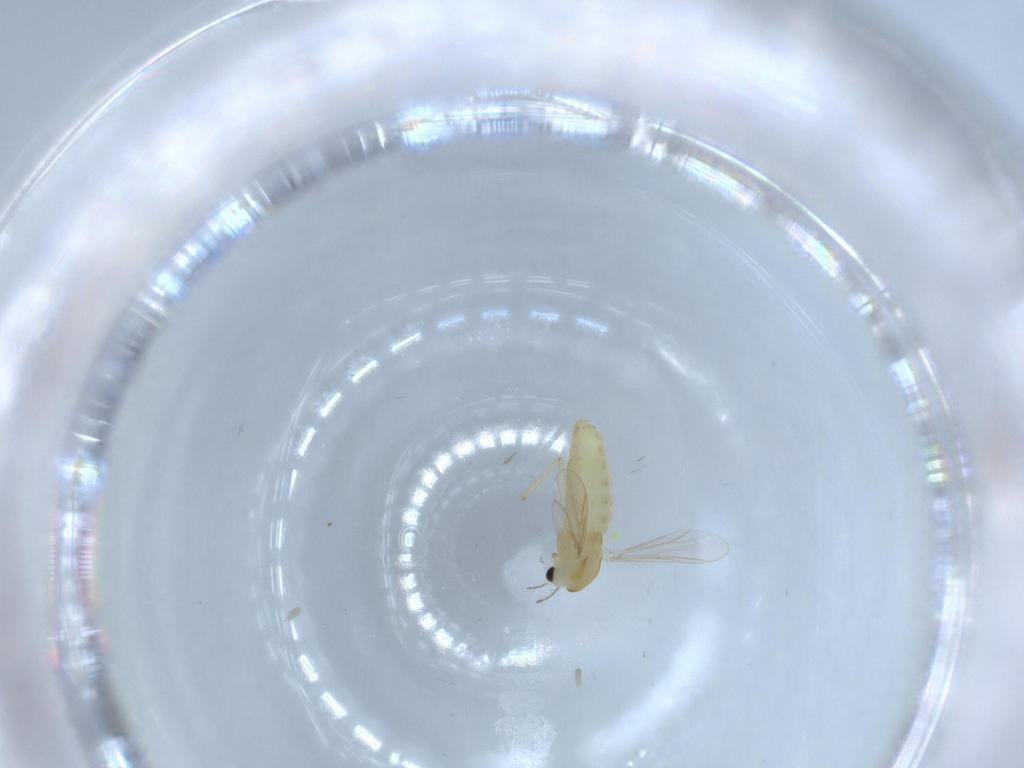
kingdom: Animalia
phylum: Arthropoda
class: Insecta
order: Diptera
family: Chironomidae
